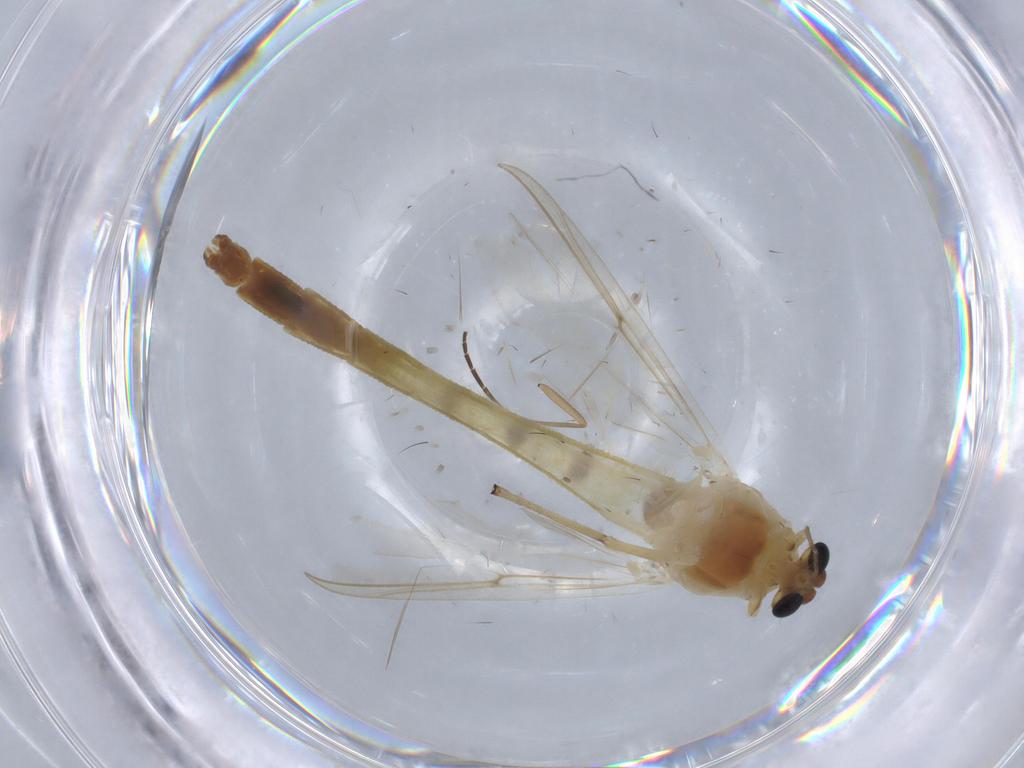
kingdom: Animalia
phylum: Arthropoda
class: Insecta
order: Diptera
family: Chironomidae
